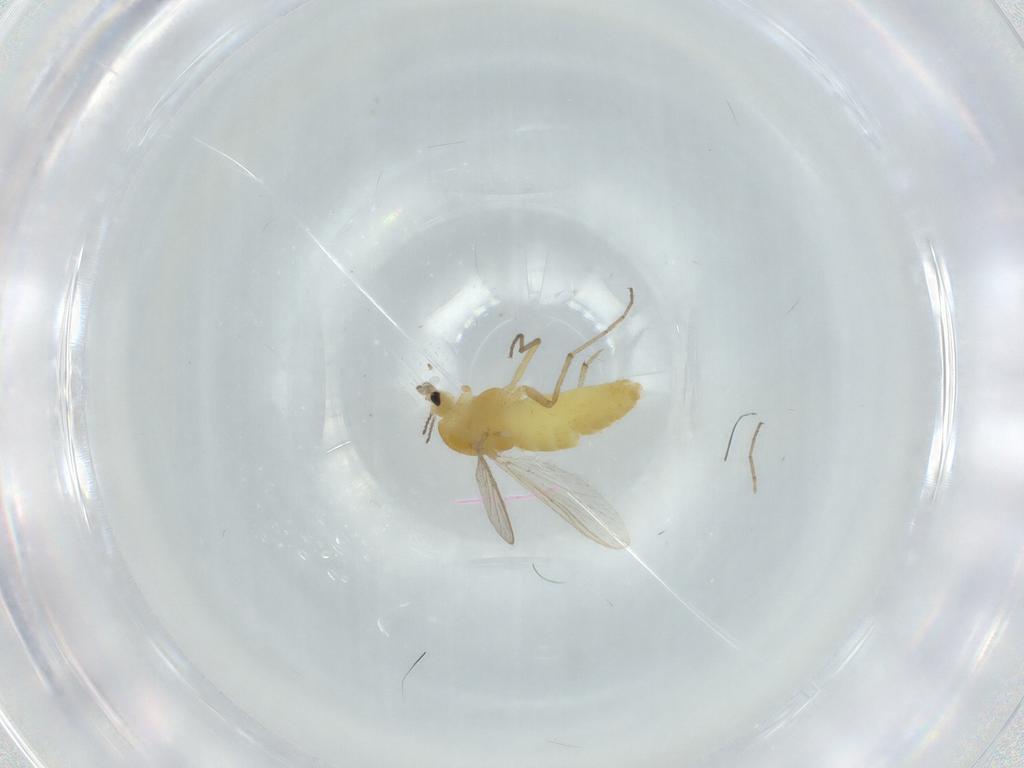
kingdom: Animalia
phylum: Arthropoda
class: Insecta
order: Diptera
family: Chironomidae
